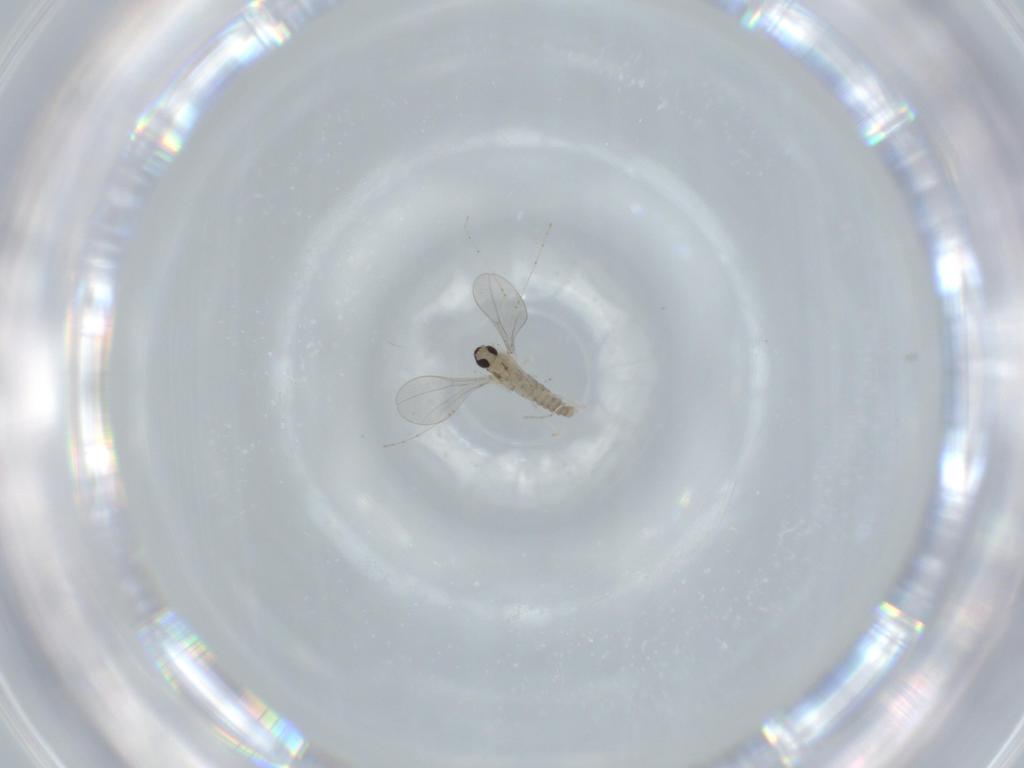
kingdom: Animalia
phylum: Arthropoda
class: Insecta
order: Diptera
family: Cecidomyiidae
